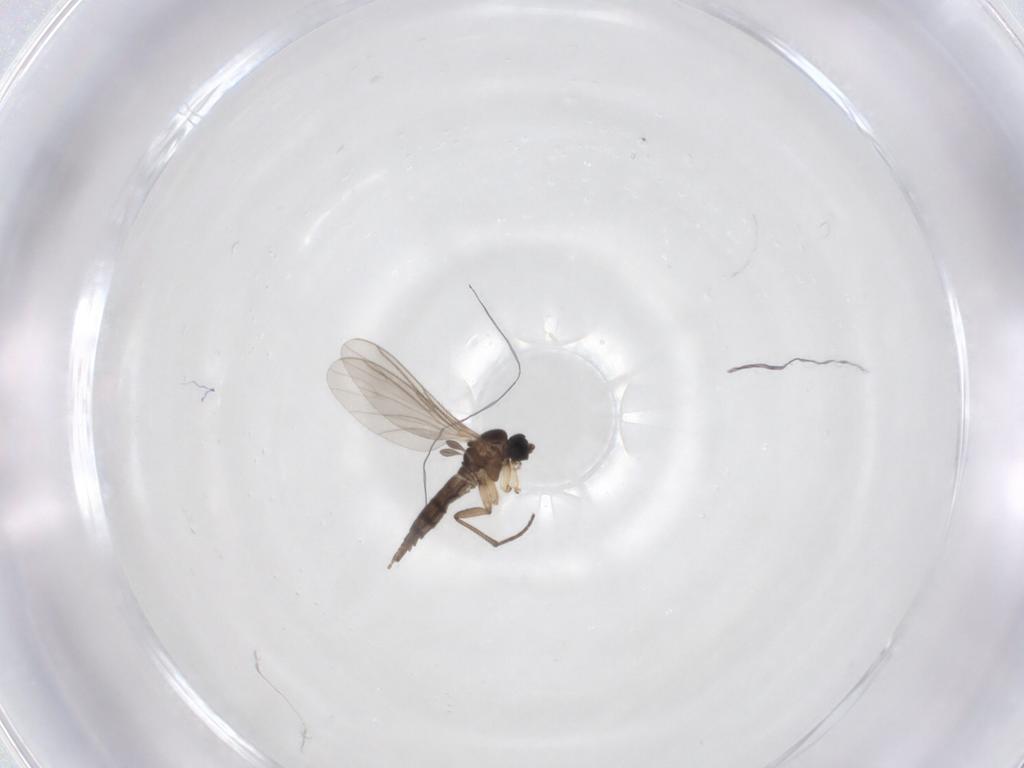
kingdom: Animalia
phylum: Arthropoda
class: Insecta
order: Diptera
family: Sciaridae
